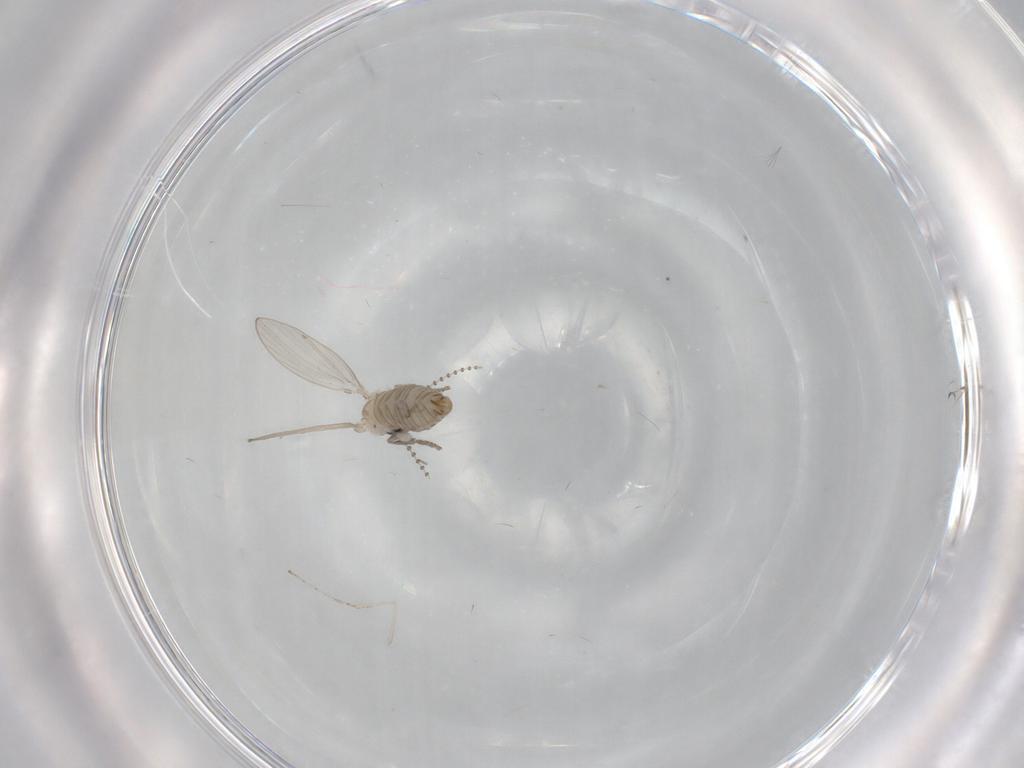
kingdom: Animalia
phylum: Arthropoda
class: Insecta
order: Diptera
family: Psychodidae
